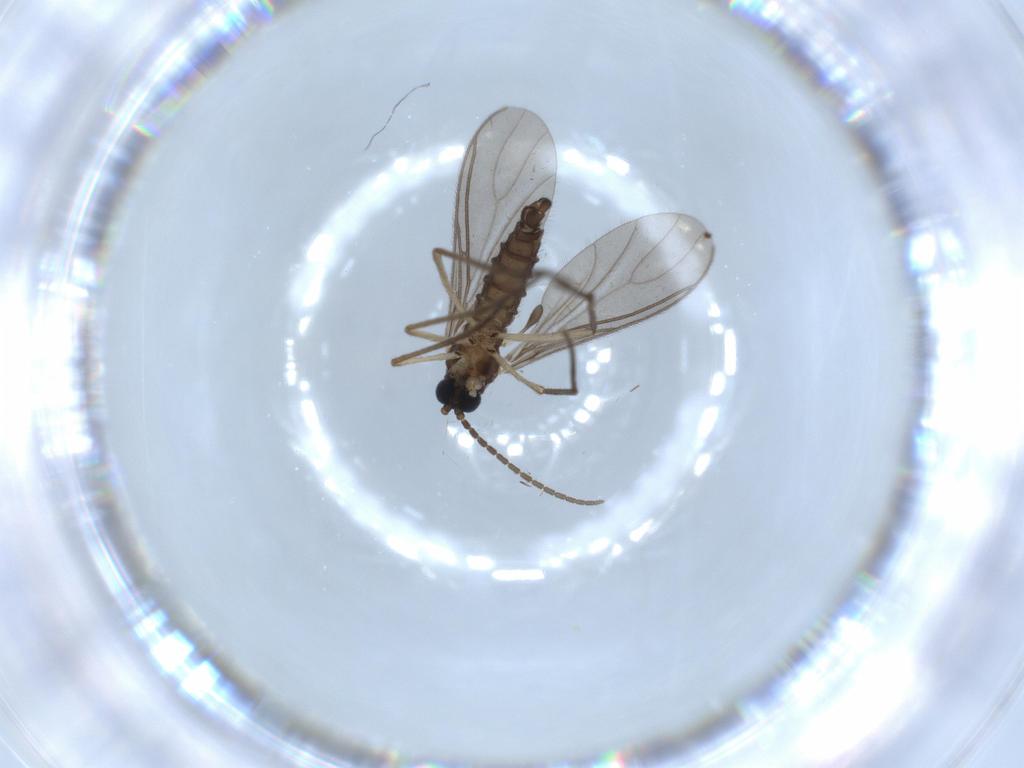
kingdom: Animalia
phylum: Arthropoda
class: Insecta
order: Diptera
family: Sciaridae
